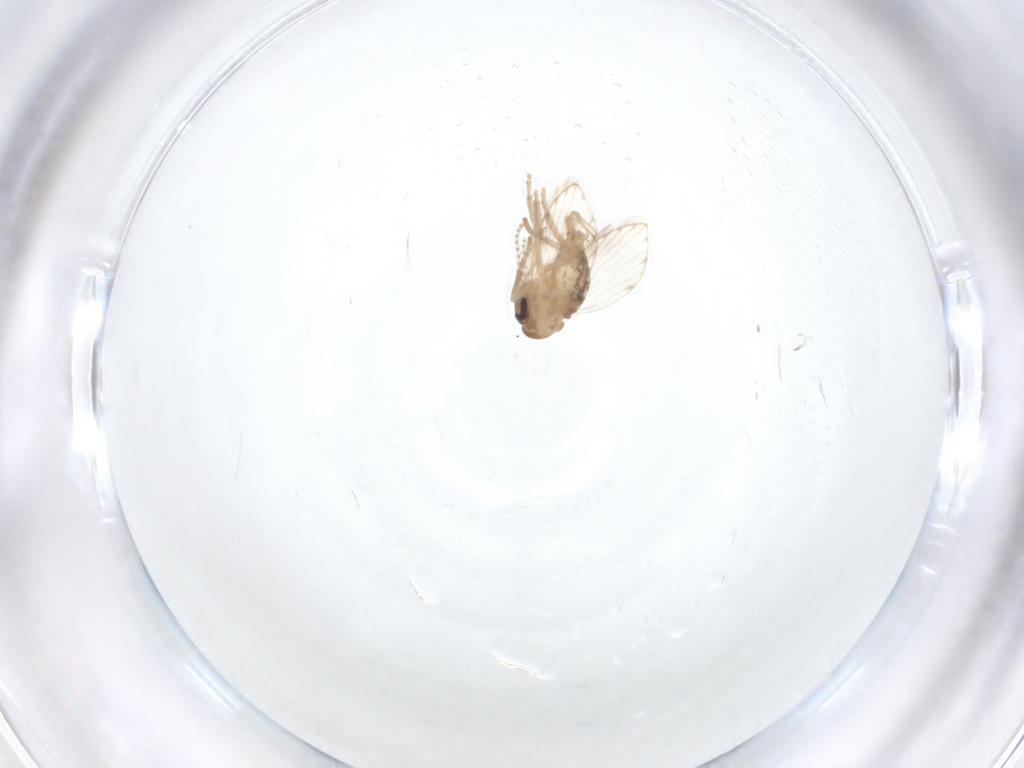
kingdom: Animalia
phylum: Arthropoda
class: Insecta
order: Diptera
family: Psychodidae
